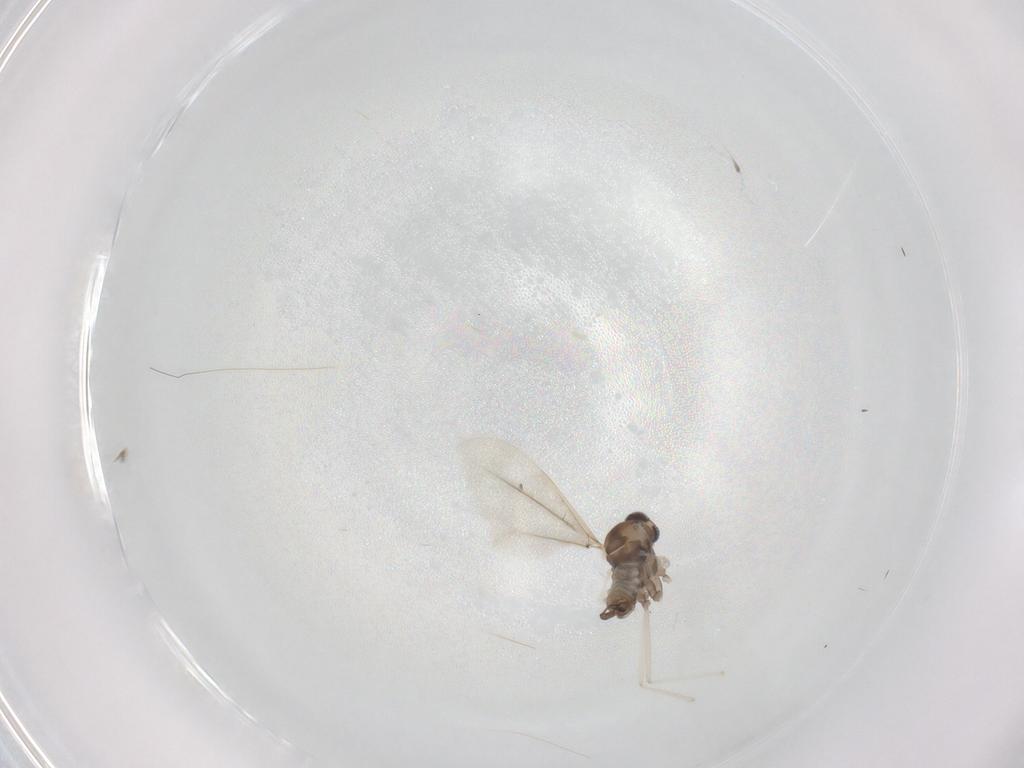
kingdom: Animalia
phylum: Arthropoda
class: Insecta
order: Diptera
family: Cecidomyiidae
